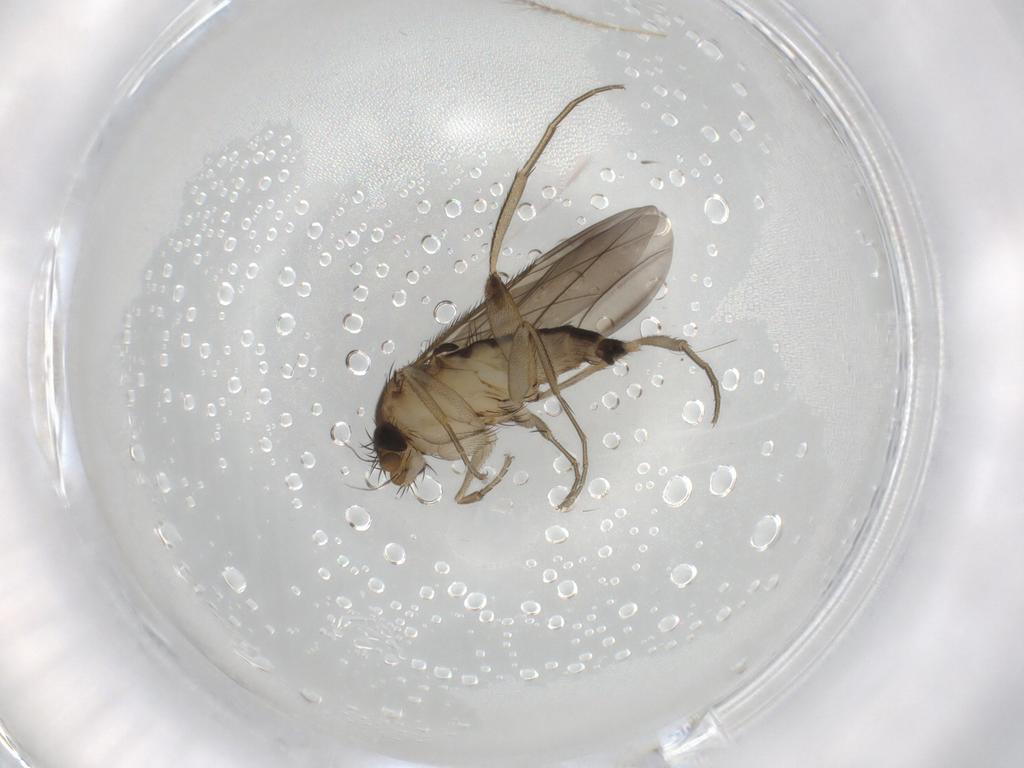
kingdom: Animalia
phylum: Arthropoda
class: Insecta
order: Diptera
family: Phoridae
